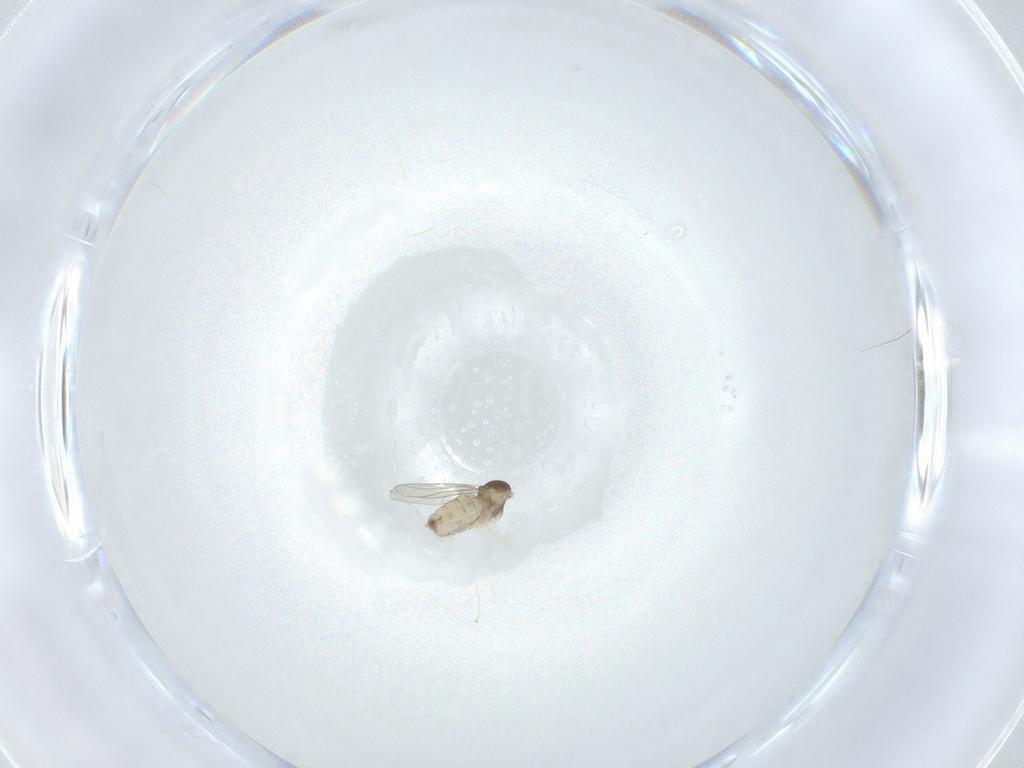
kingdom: Animalia
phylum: Arthropoda
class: Insecta
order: Diptera
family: Cecidomyiidae
